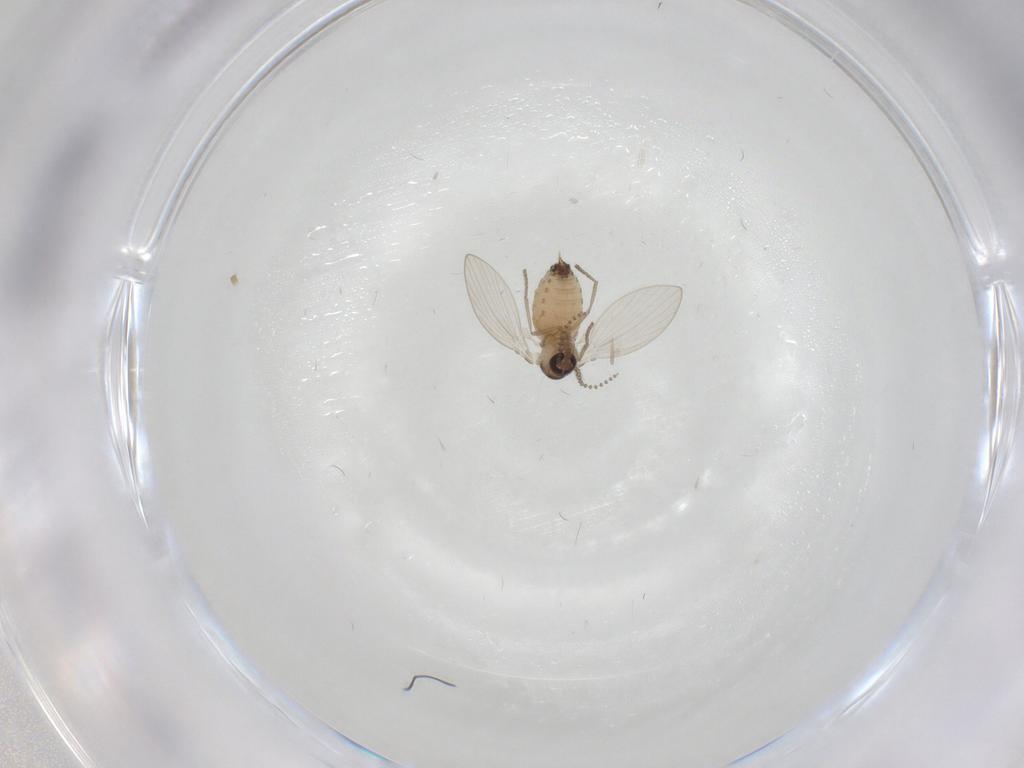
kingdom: Animalia
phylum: Arthropoda
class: Insecta
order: Diptera
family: Psychodidae
